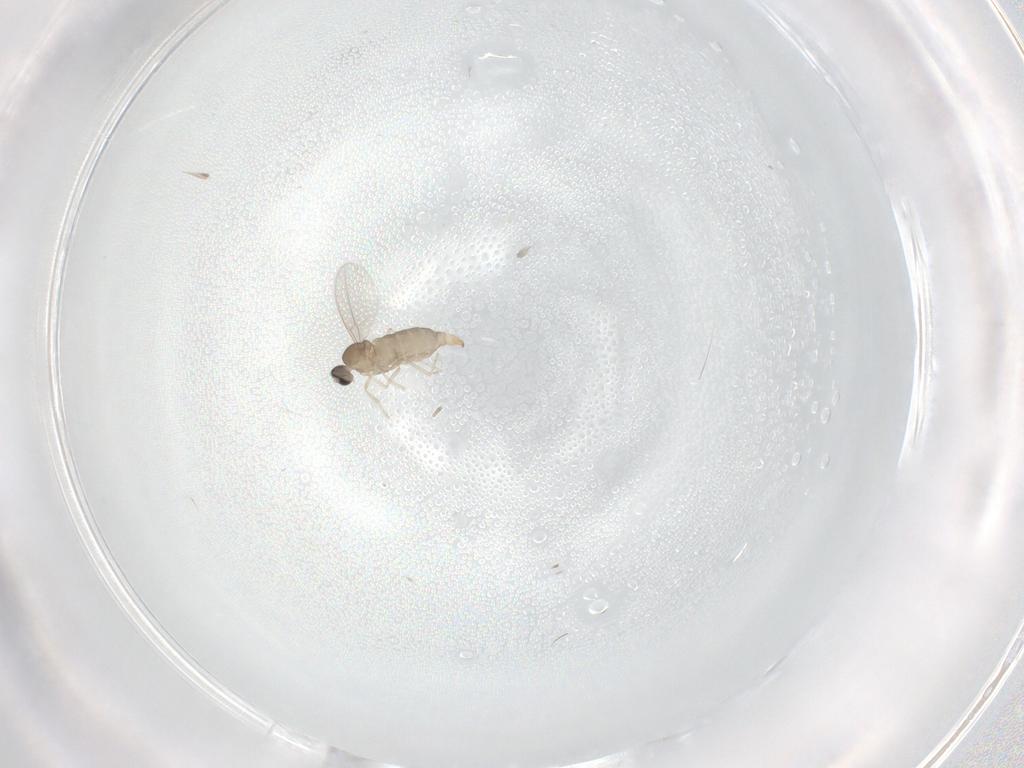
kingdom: Animalia
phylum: Arthropoda
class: Insecta
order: Diptera
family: Cecidomyiidae
